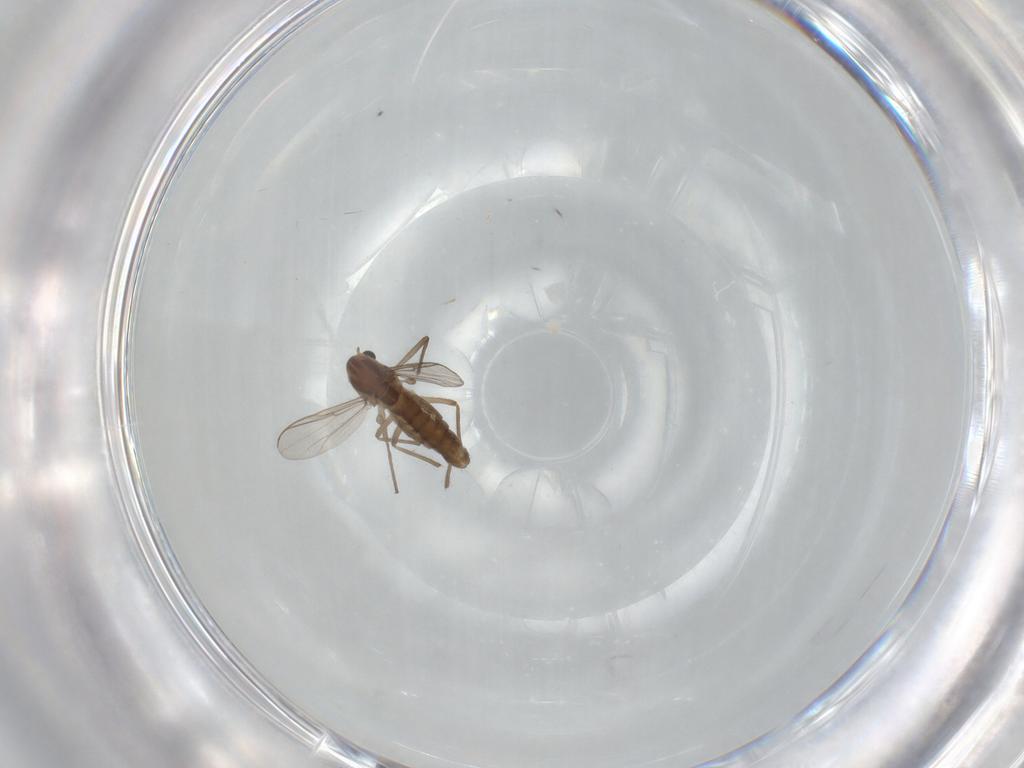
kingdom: Animalia
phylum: Arthropoda
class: Insecta
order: Diptera
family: Chironomidae
